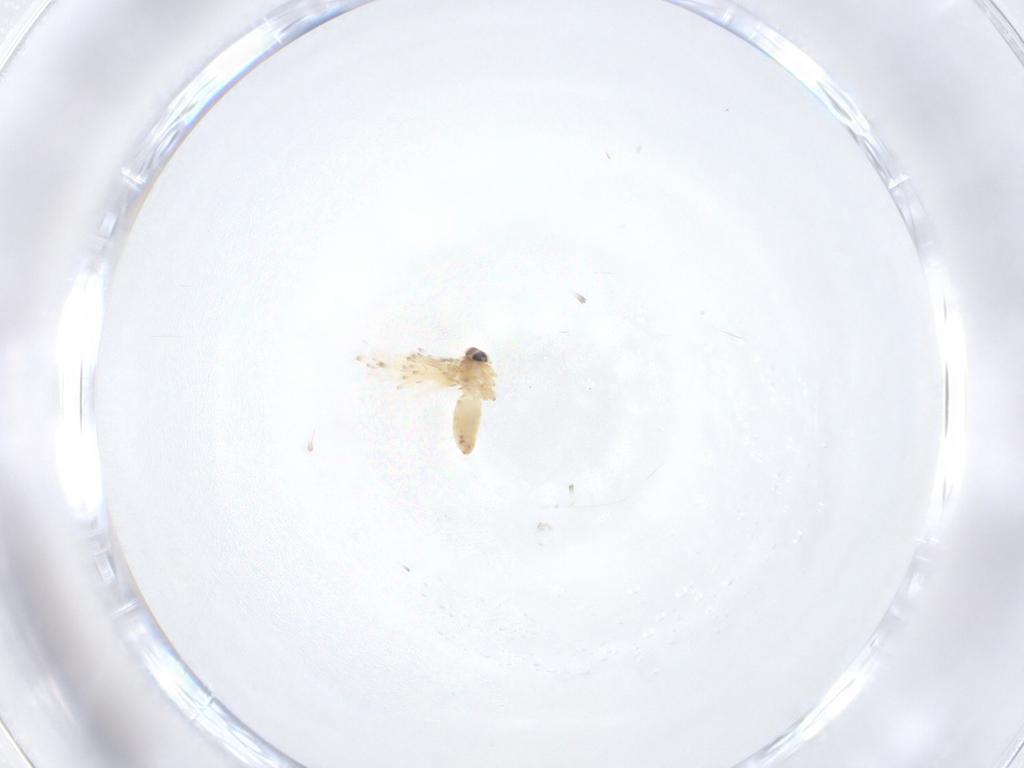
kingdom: Animalia
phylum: Arthropoda
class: Insecta
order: Lepidoptera
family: Crambidae
